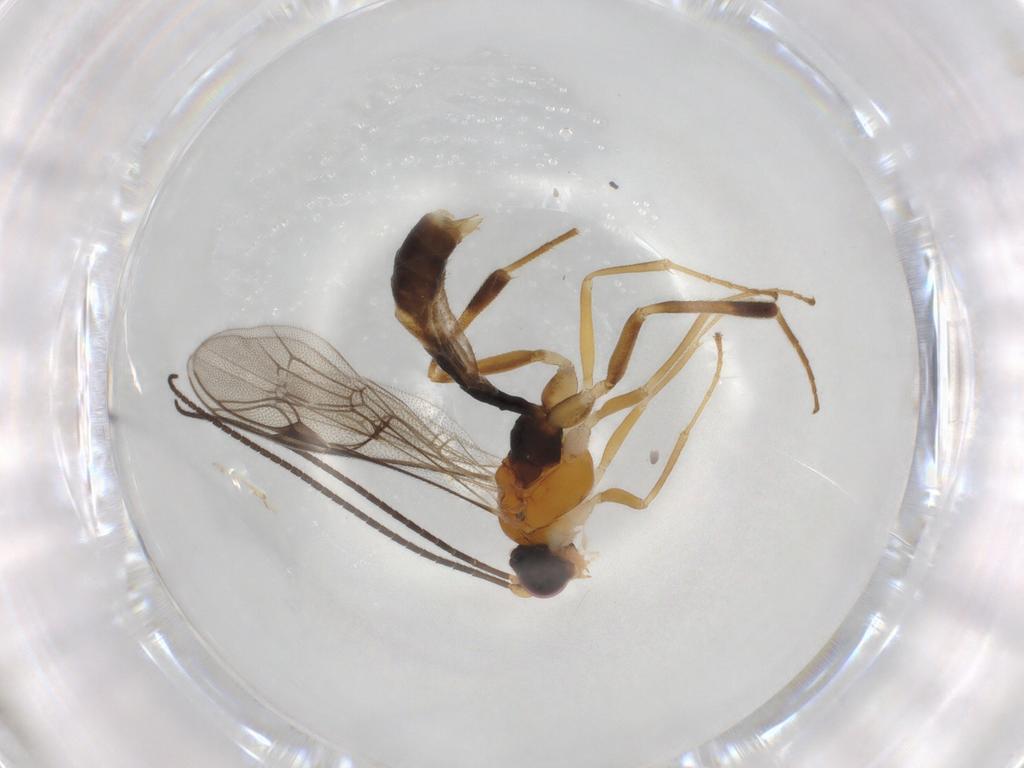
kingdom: Animalia
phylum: Arthropoda
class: Insecta
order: Hymenoptera
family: Ichneumonidae
